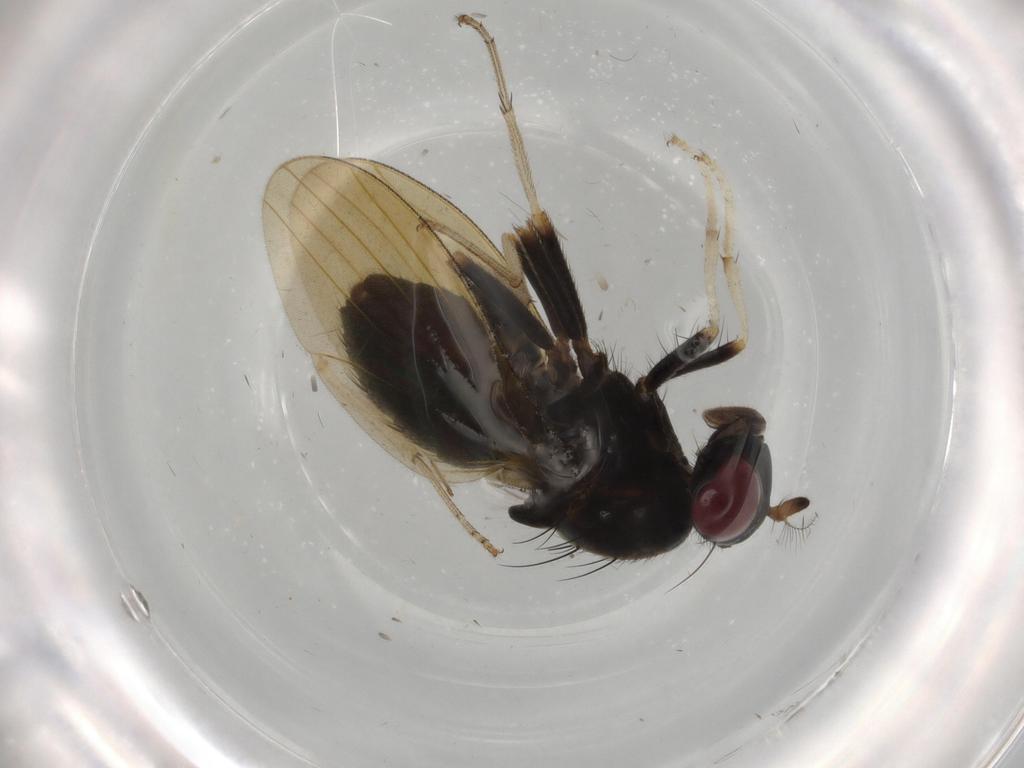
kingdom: Animalia
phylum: Arthropoda
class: Insecta
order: Diptera
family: Cecidomyiidae
